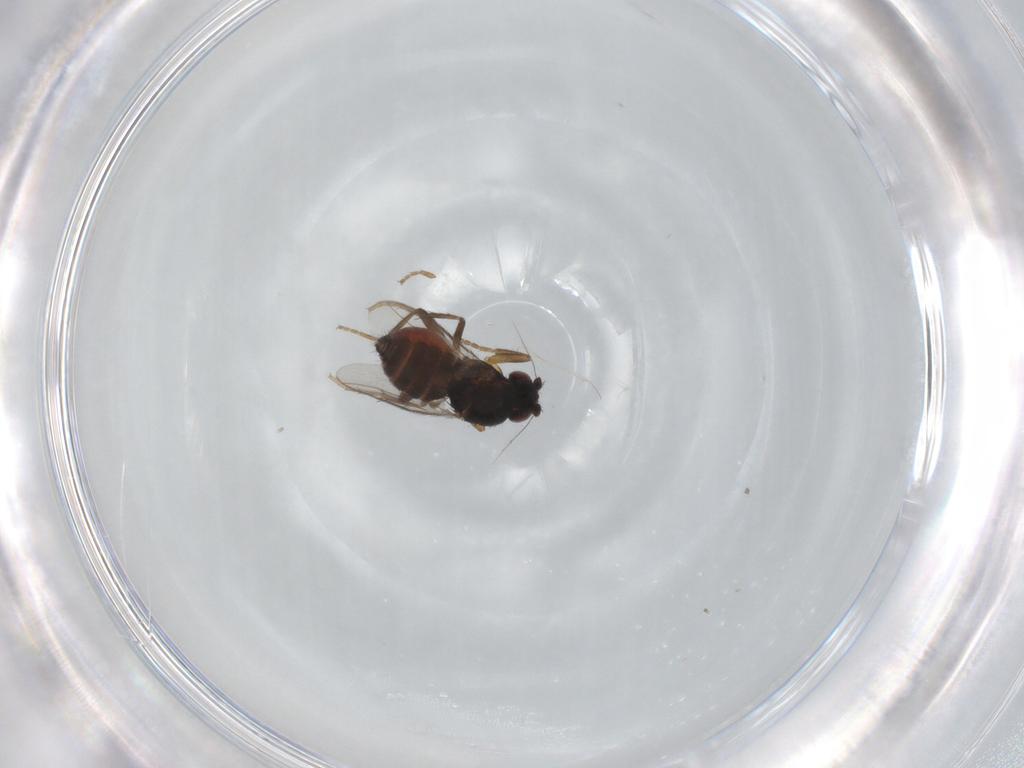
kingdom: Animalia
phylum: Arthropoda
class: Insecta
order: Diptera
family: Sphaeroceridae
